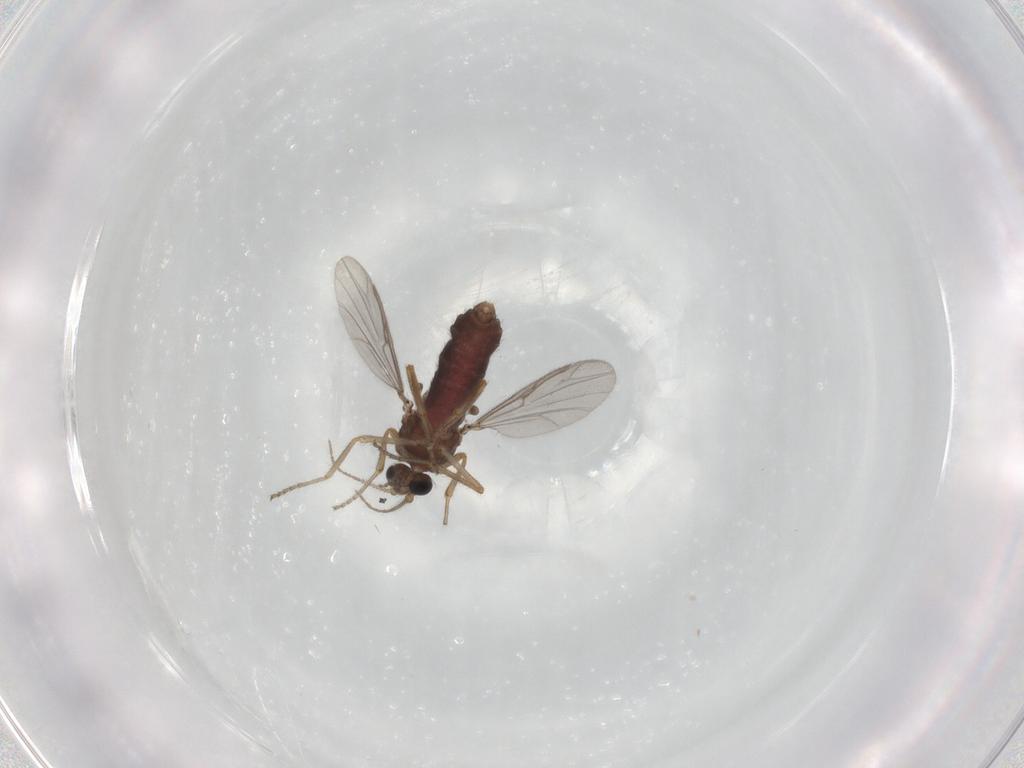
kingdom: Animalia
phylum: Arthropoda
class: Insecta
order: Diptera
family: Ceratopogonidae
